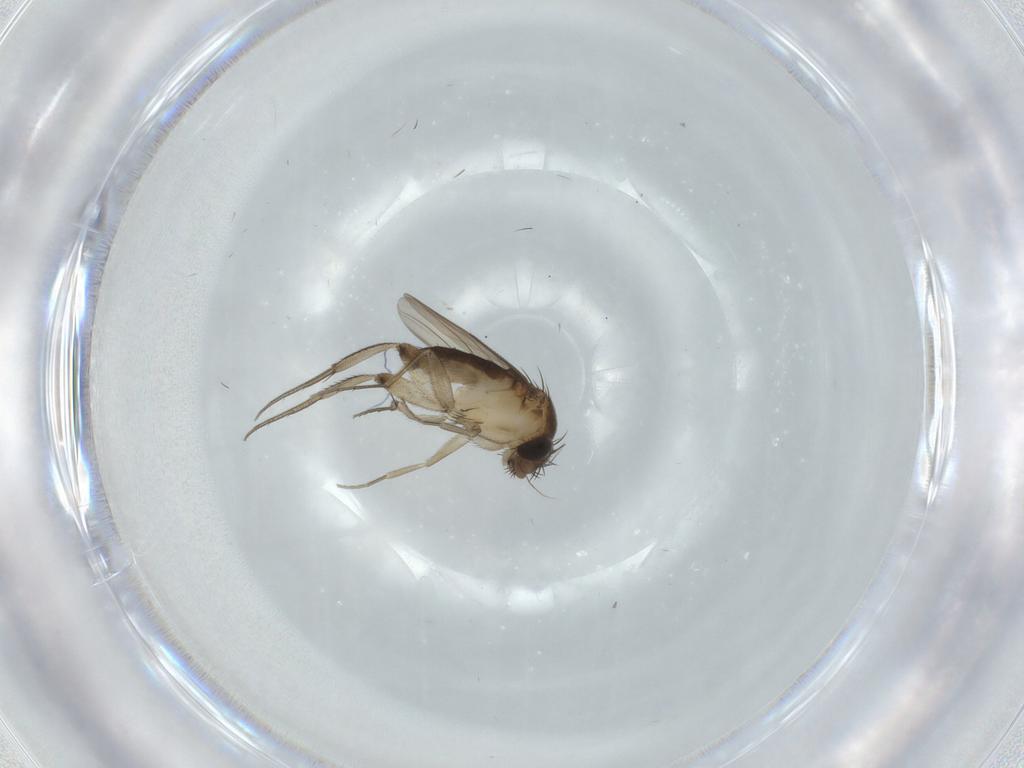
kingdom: Animalia
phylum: Arthropoda
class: Insecta
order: Diptera
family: Phoridae
